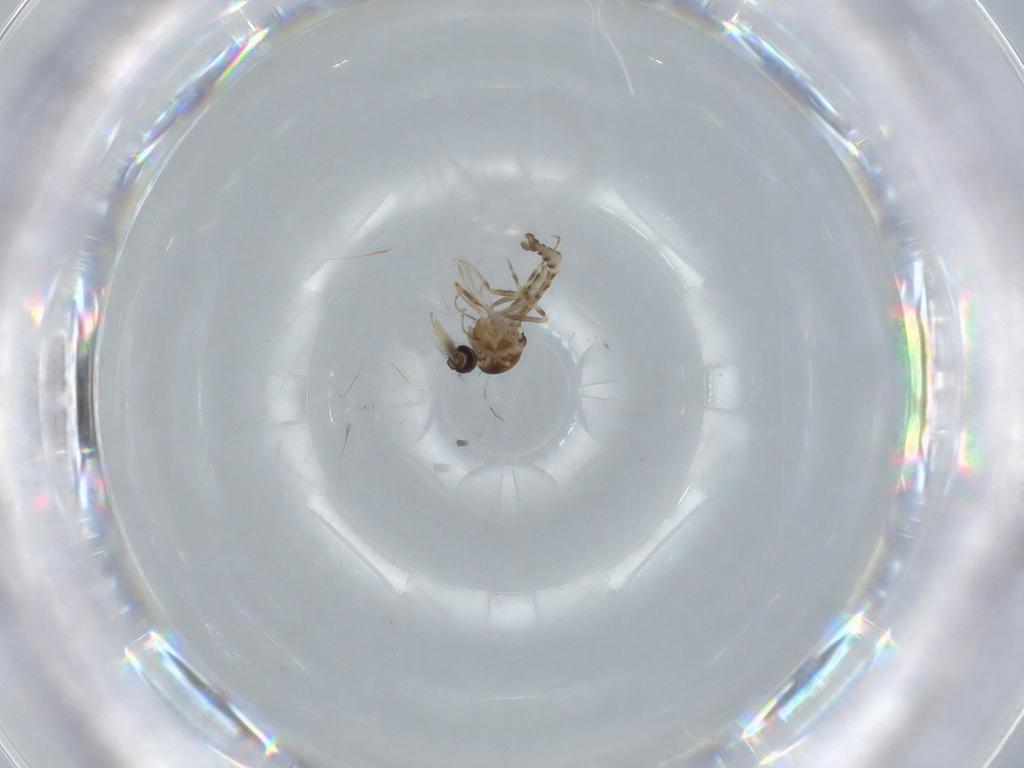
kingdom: Animalia
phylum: Arthropoda
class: Insecta
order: Diptera
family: Ceratopogonidae
